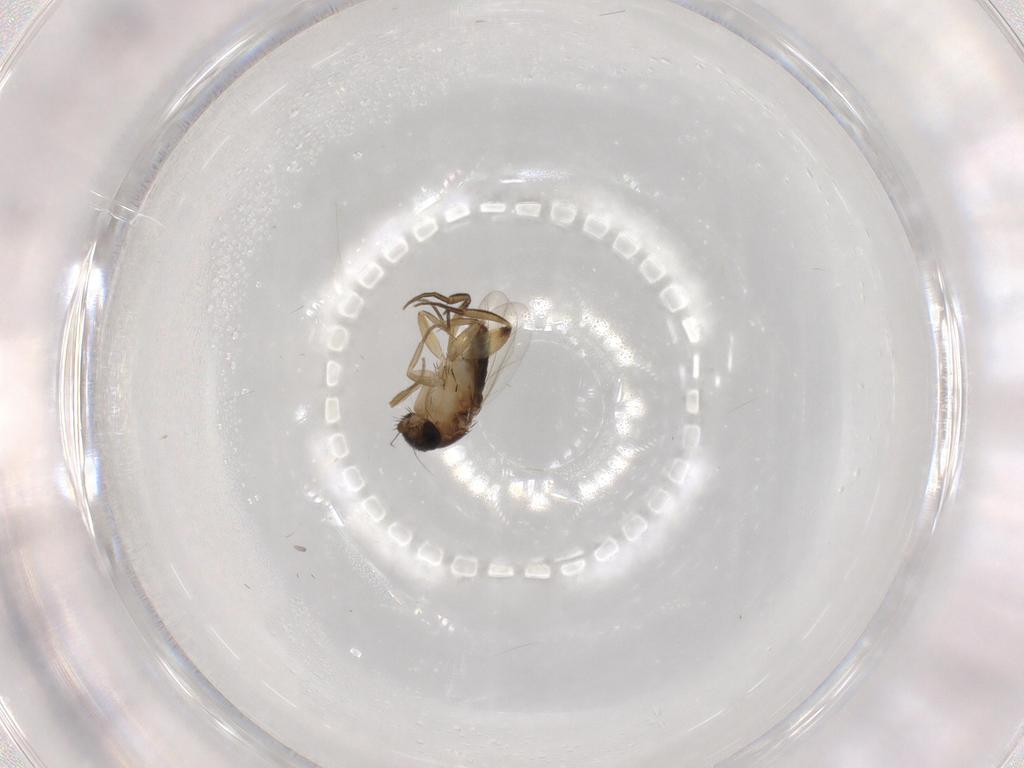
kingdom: Animalia
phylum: Arthropoda
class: Insecta
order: Diptera
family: Phoridae
